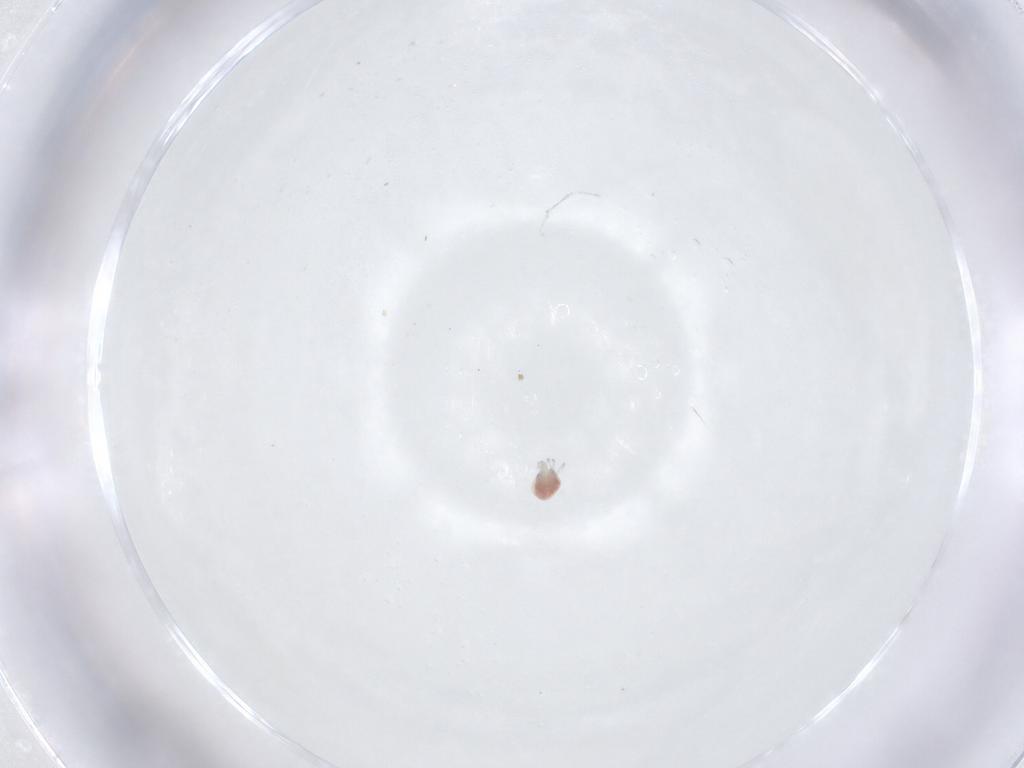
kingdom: Animalia
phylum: Arthropoda
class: Arachnida
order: Trombidiformes
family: Pionidae
